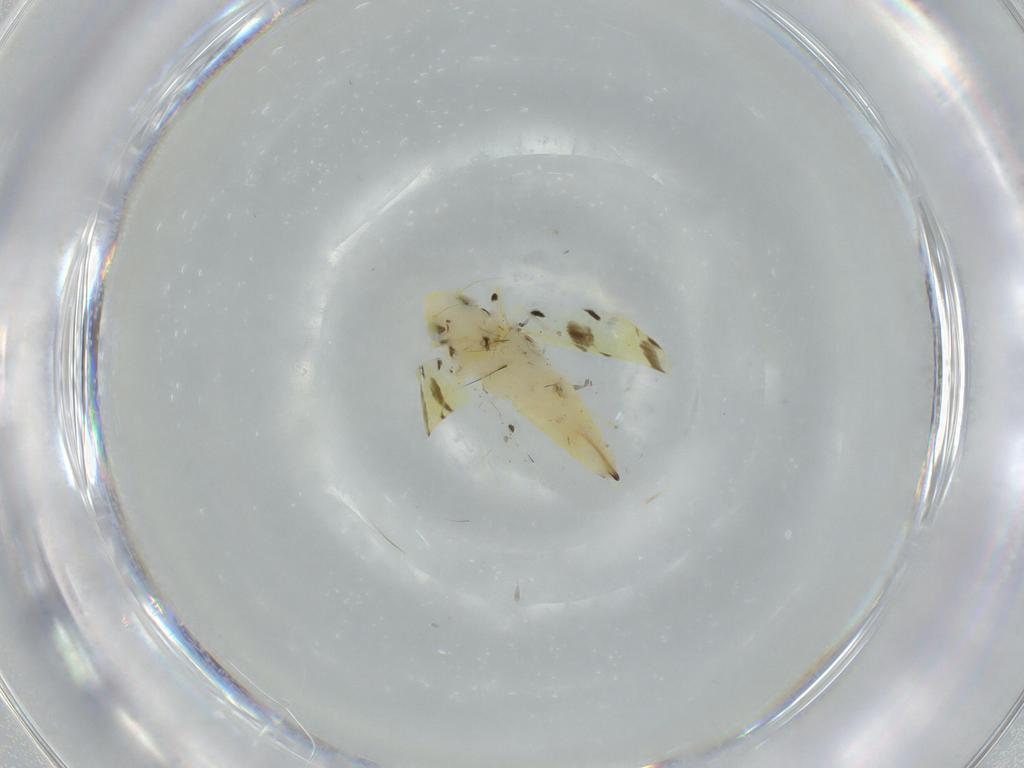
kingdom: Animalia
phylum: Arthropoda
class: Insecta
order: Hemiptera
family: Cicadellidae
